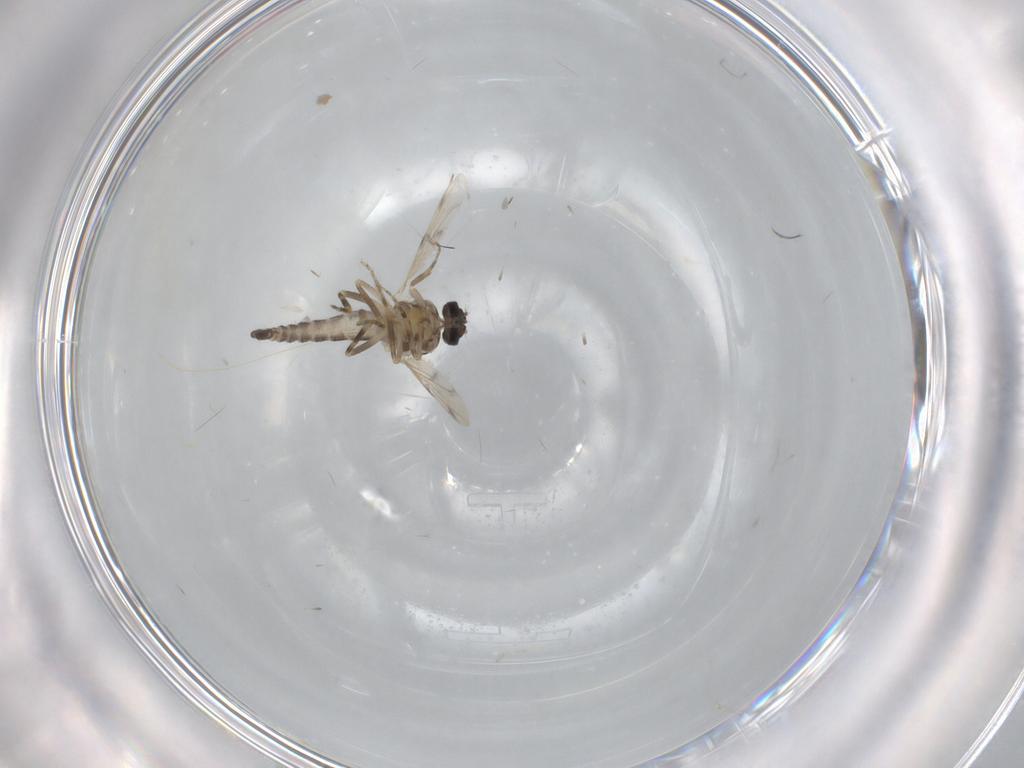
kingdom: Animalia
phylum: Arthropoda
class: Insecta
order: Diptera
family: Ceratopogonidae
